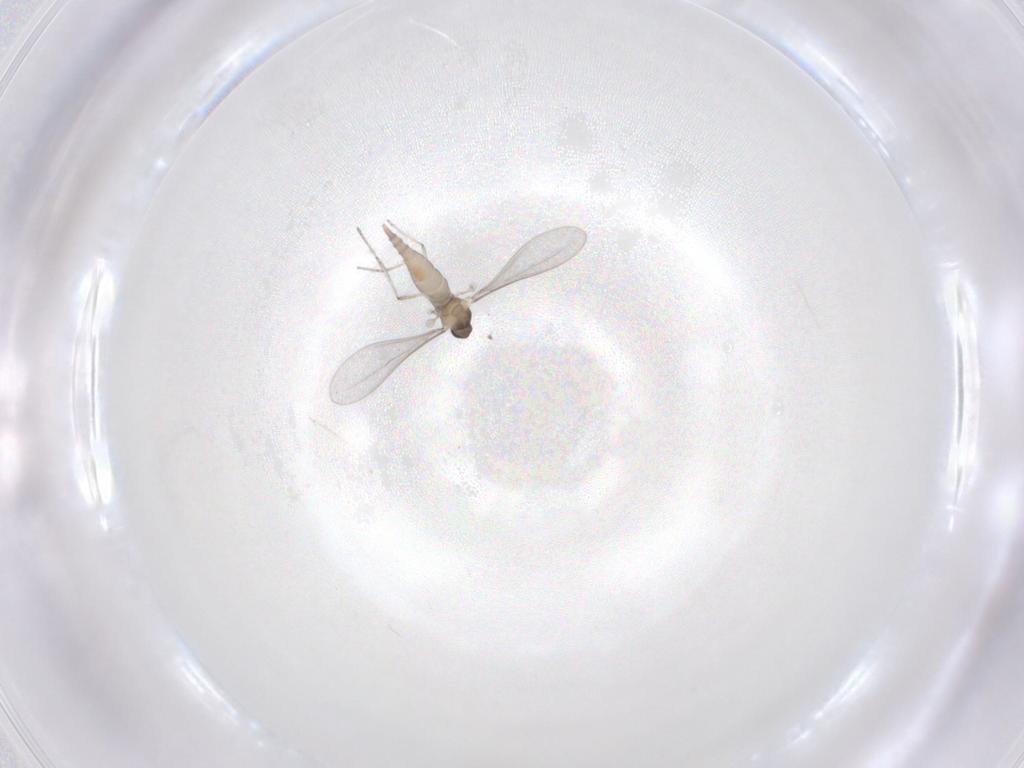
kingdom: Animalia
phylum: Arthropoda
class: Insecta
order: Diptera
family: Cecidomyiidae
